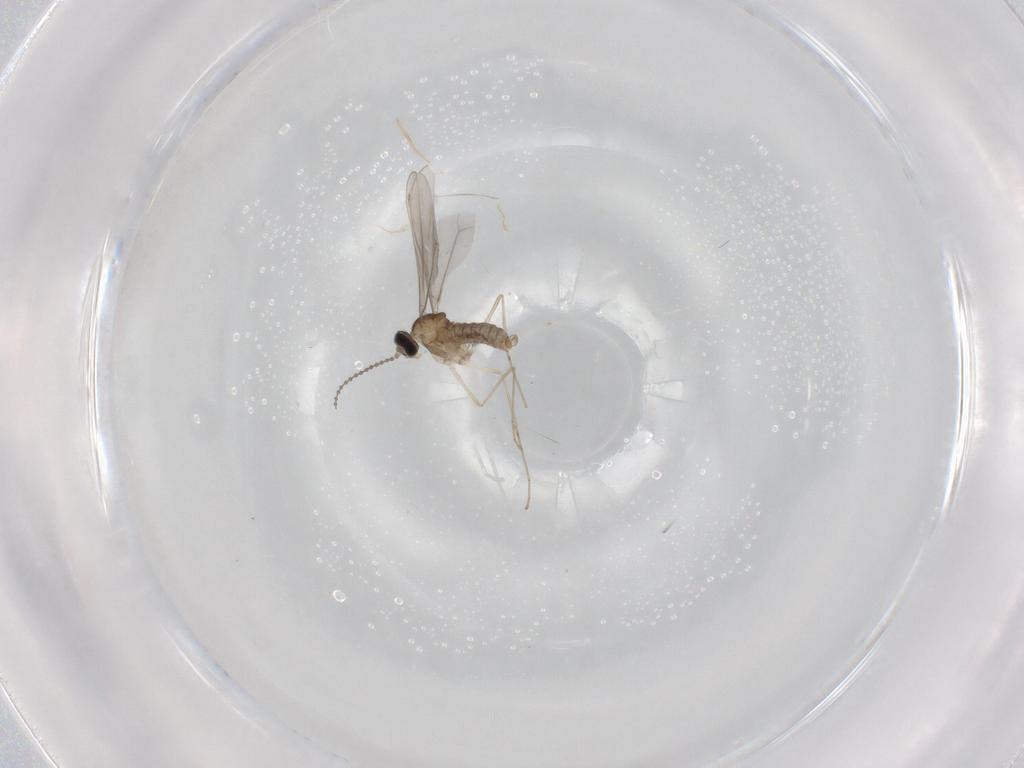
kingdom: Animalia
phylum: Arthropoda
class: Insecta
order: Diptera
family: Cecidomyiidae
